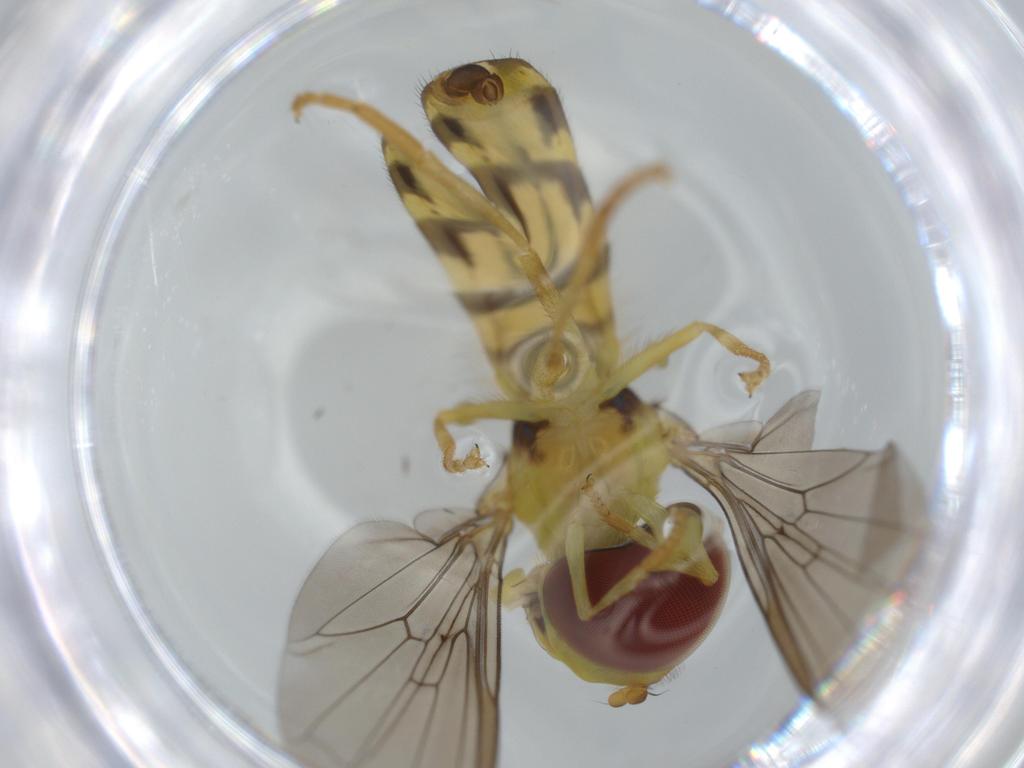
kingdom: Animalia
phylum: Arthropoda
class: Insecta
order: Diptera
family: Syrphidae
